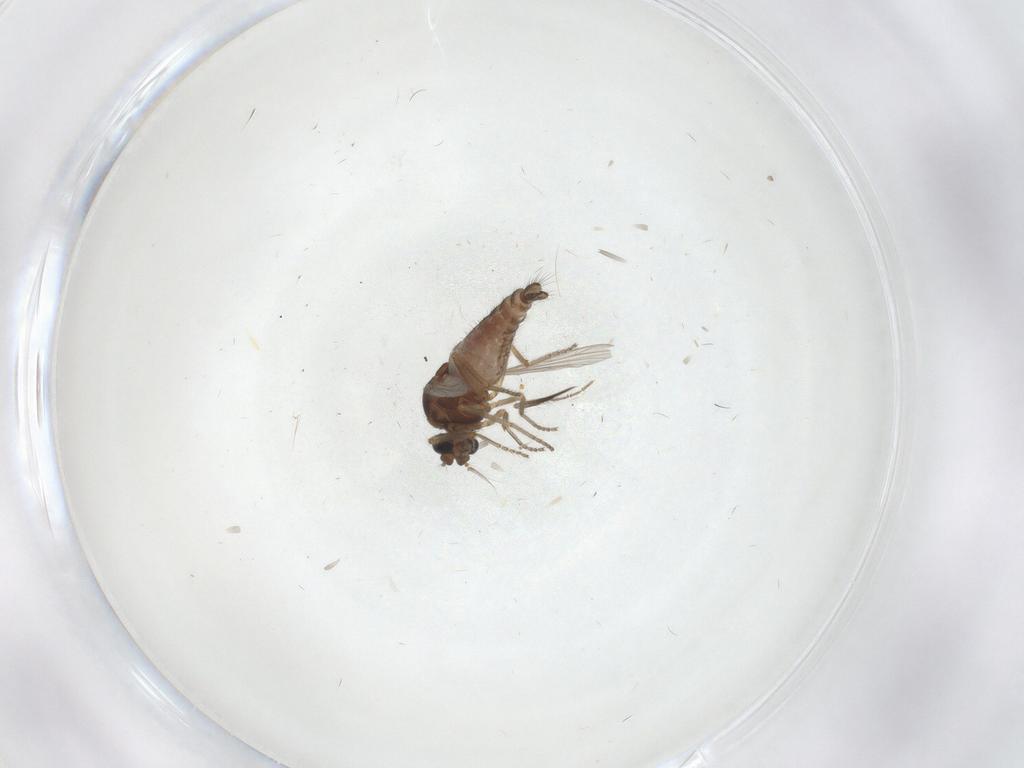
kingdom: Animalia
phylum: Arthropoda
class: Insecta
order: Diptera
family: Ceratopogonidae
